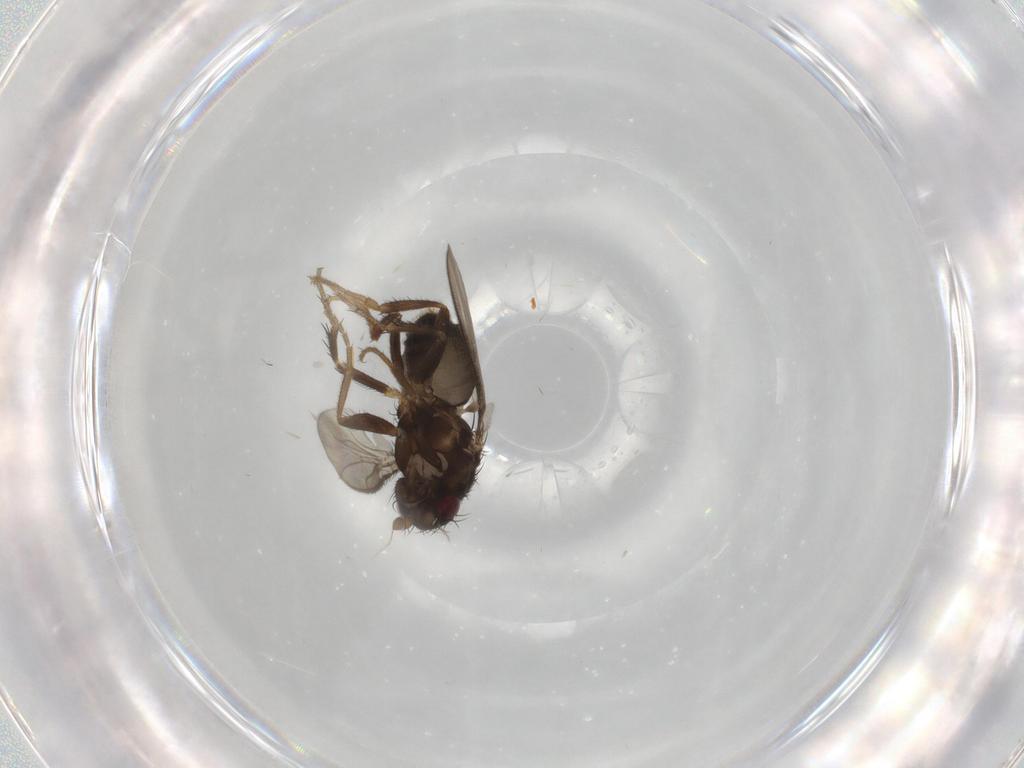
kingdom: Animalia
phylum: Arthropoda
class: Insecta
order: Diptera
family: Sphaeroceridae
